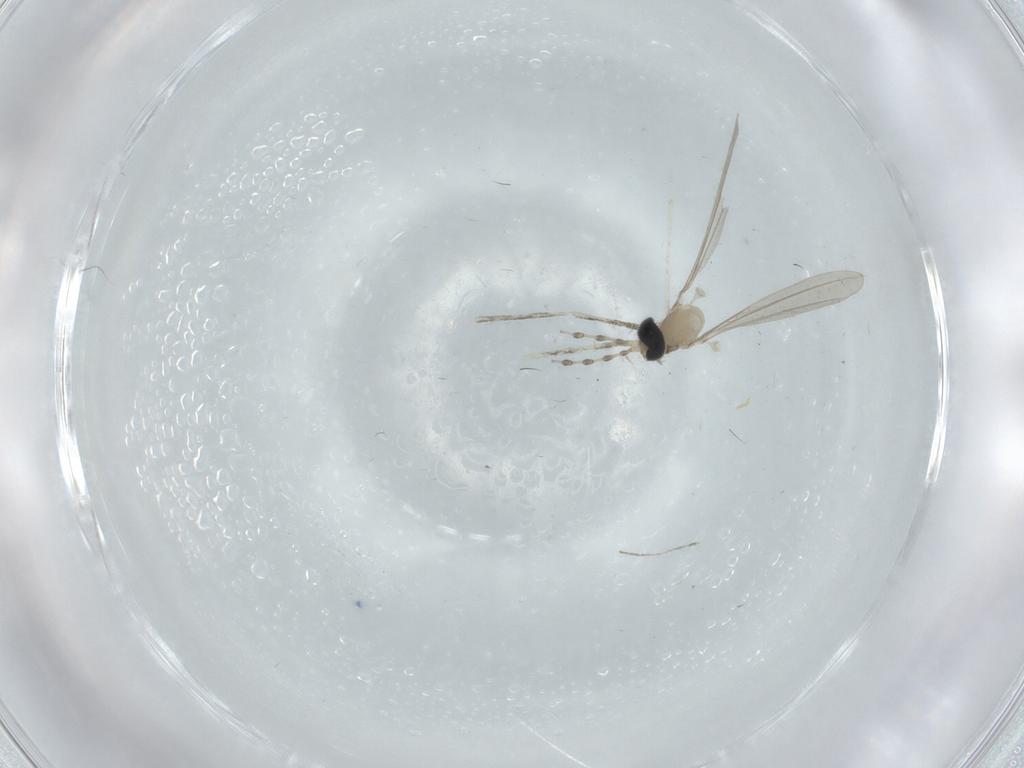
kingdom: Animalia
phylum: Arthropoda
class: Insecta
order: Diptera
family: Cecidomyiidae
